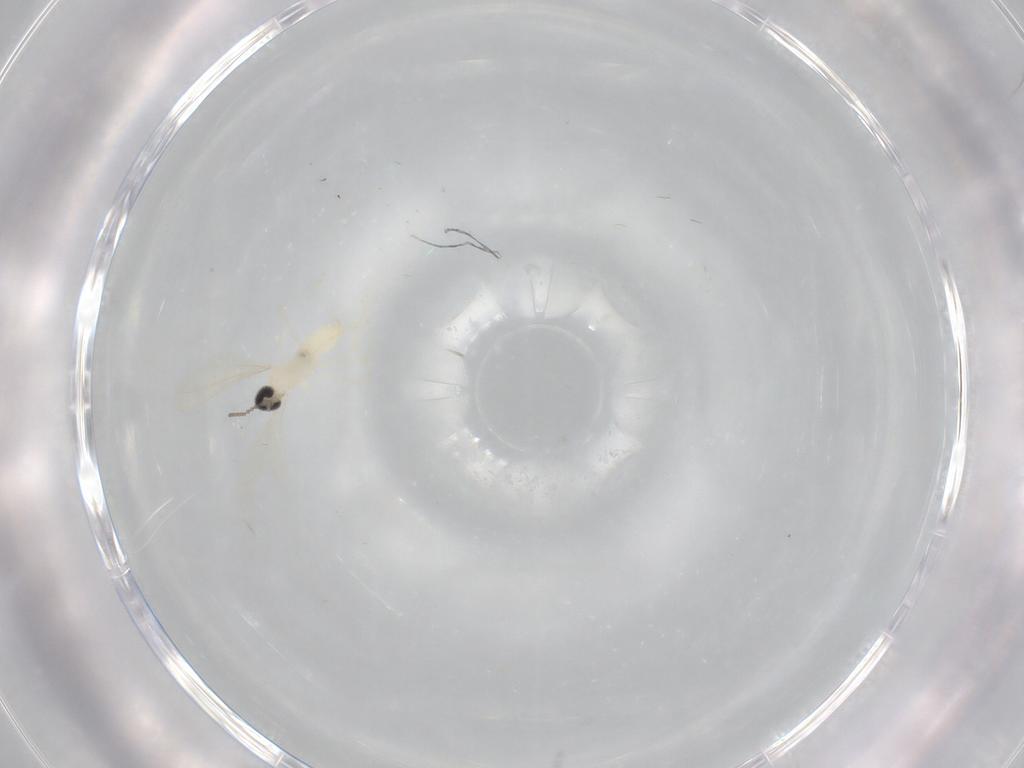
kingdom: Animalia
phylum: Arthropoda
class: Insecta
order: Diptera
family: Cecidomyiidae
